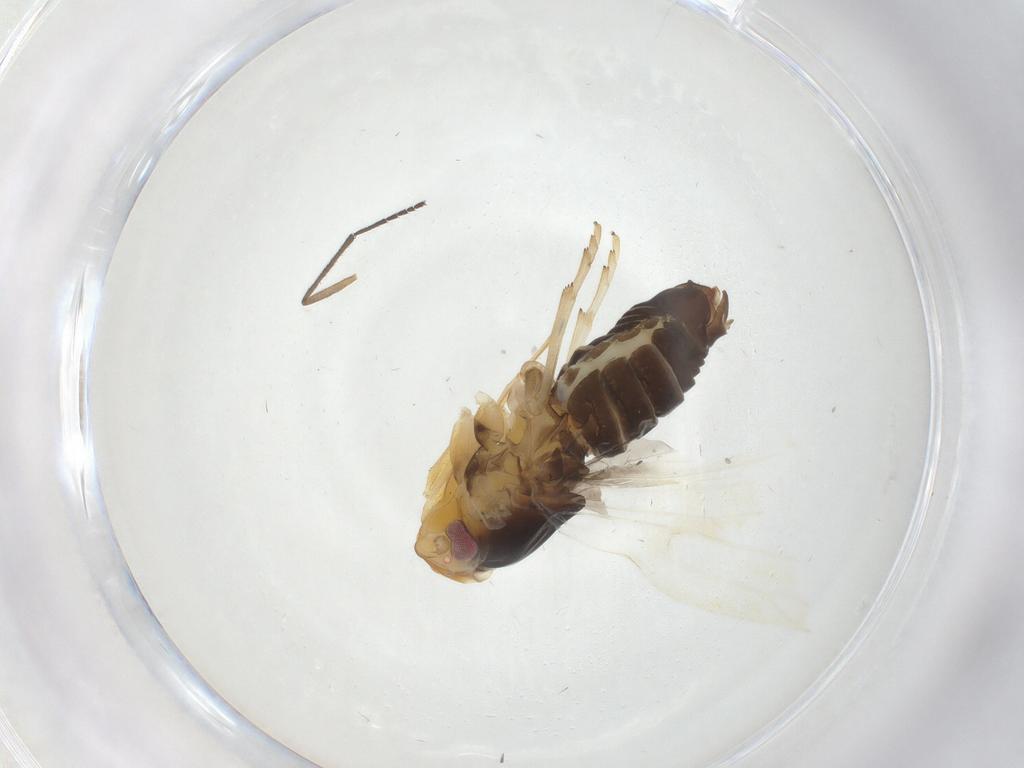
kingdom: Animalia
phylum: Arthropoda
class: Insecta
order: Hemiptera
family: Cixiidae
